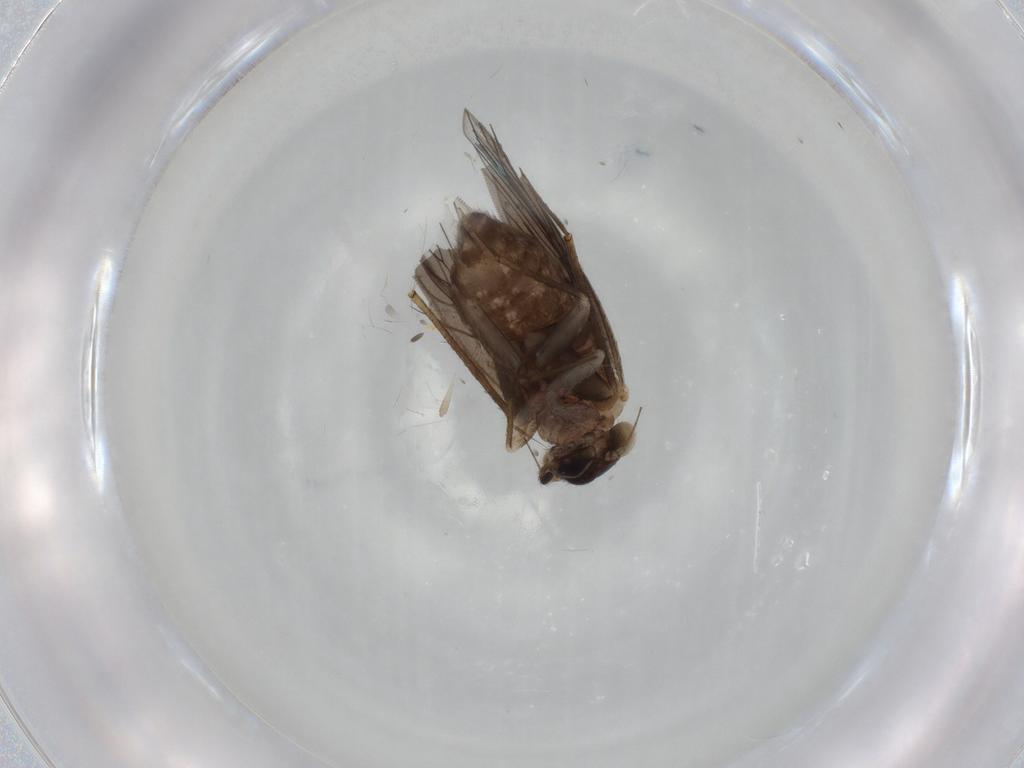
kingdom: Animalia
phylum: Arthropoda
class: Insecta
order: Psocodea
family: Lepidopsocidae
